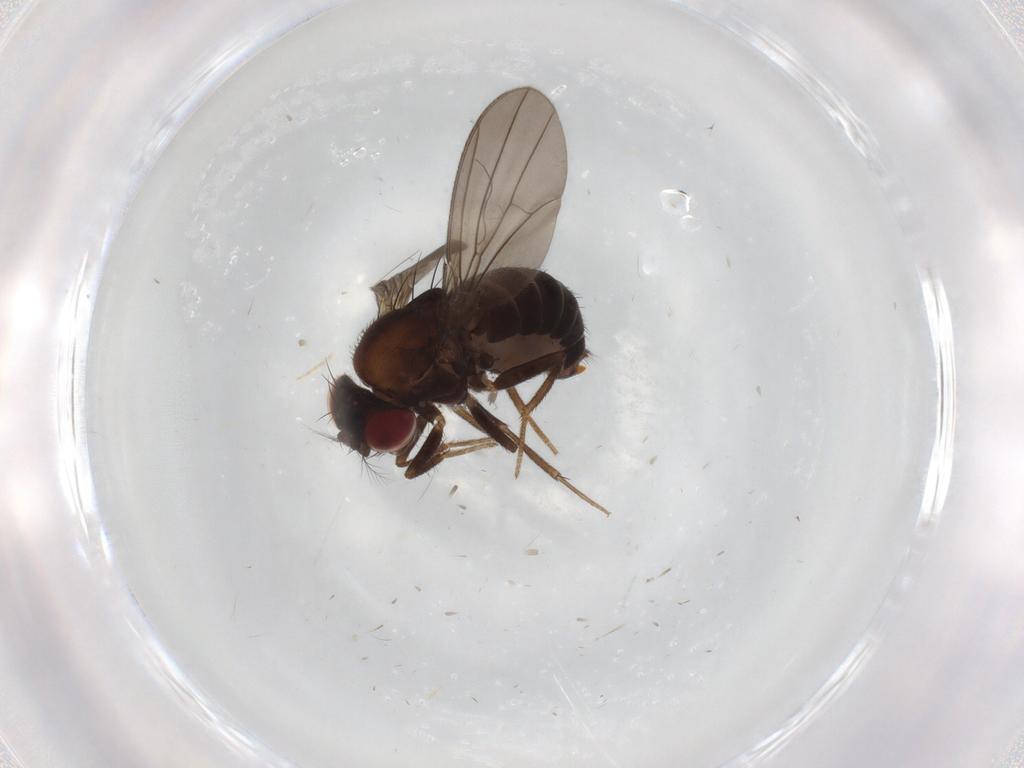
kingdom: Animalia
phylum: Arthropoda
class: Insecta
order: Diptera
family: Drosophilidae
